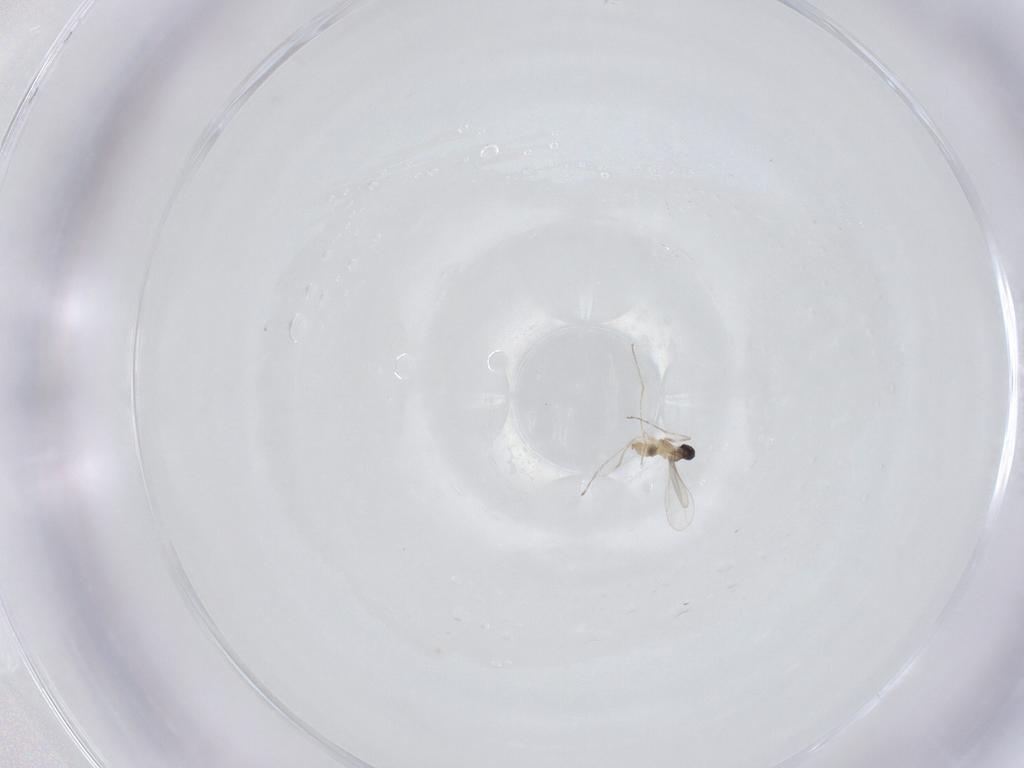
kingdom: Animalia
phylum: Arthropoda
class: Insecta
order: Diptera
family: Cecidomyiidae
